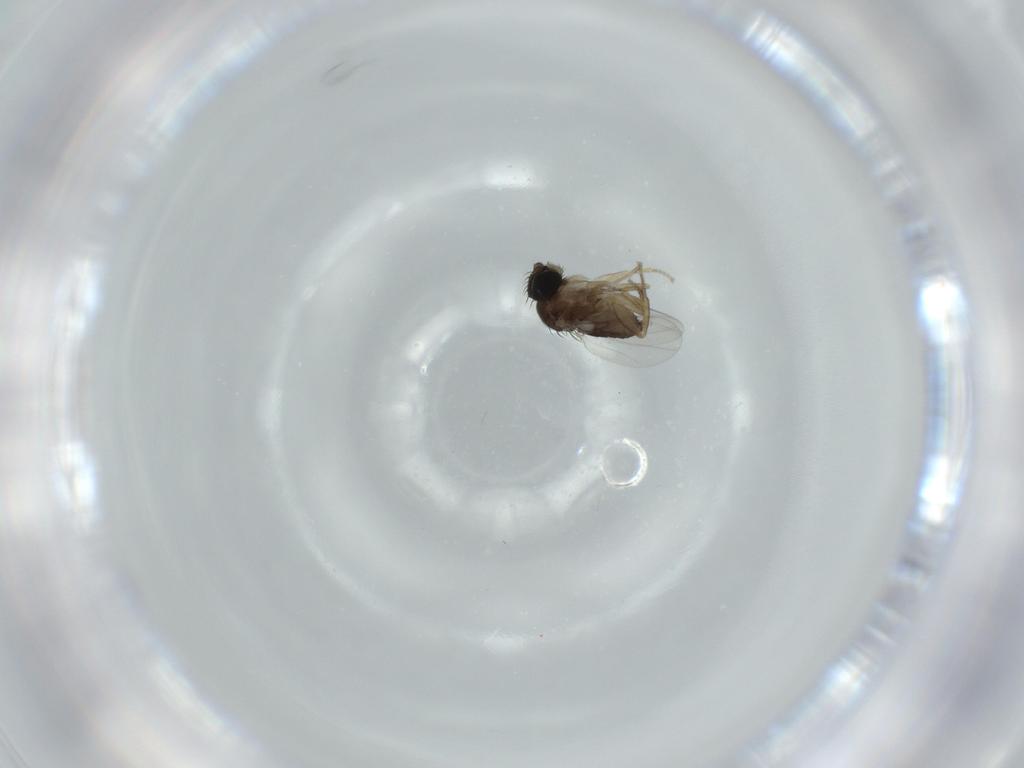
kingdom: Animalia
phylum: Arthropoda
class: Insecta
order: Diptera
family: Phoridae
